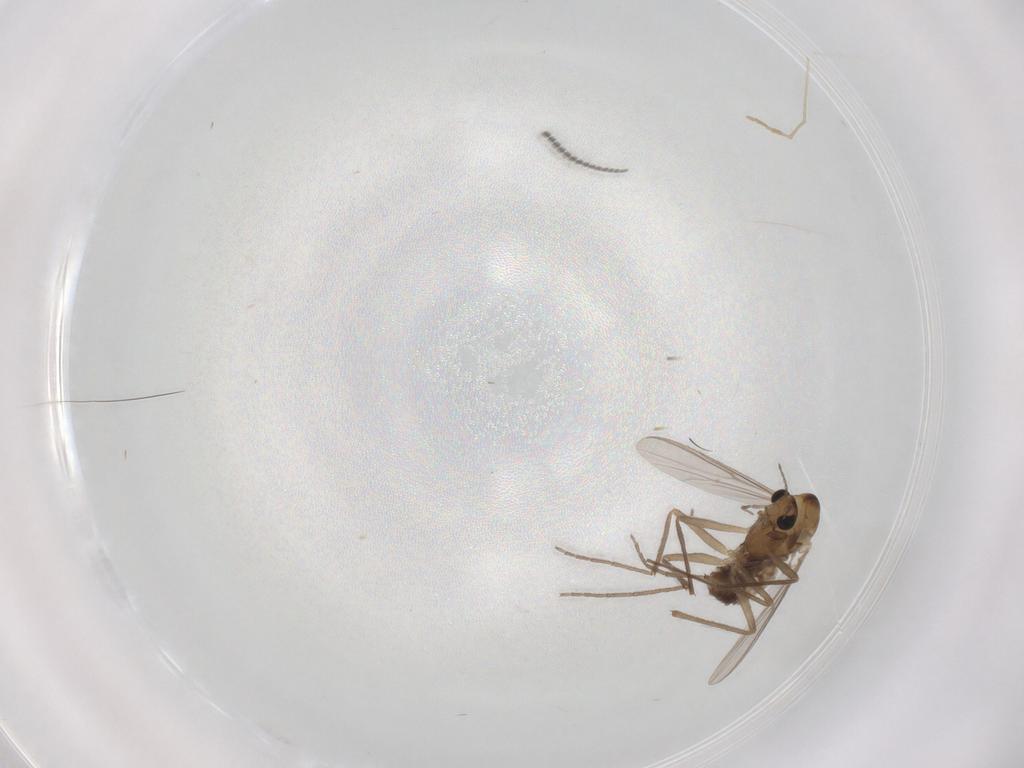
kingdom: Animalia
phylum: Arthropoda
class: Insecta
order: Diptera
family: Chironomidae
